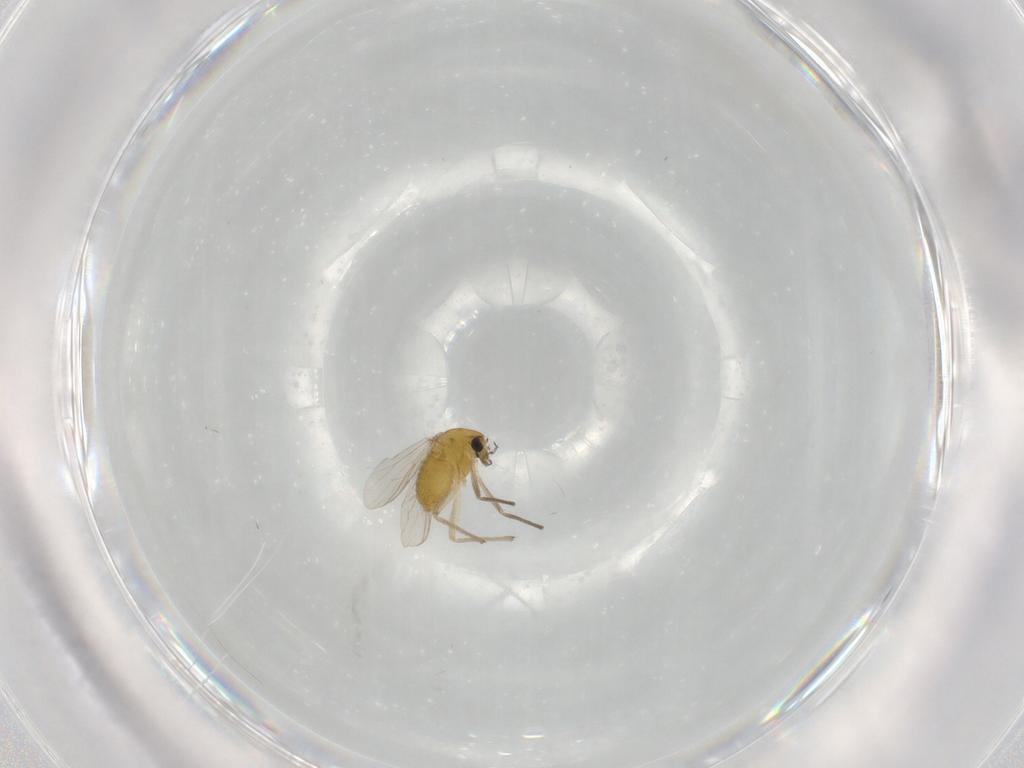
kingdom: Animalia
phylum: Arthropoda
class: Insecta
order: Diptera
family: Chironomidae
